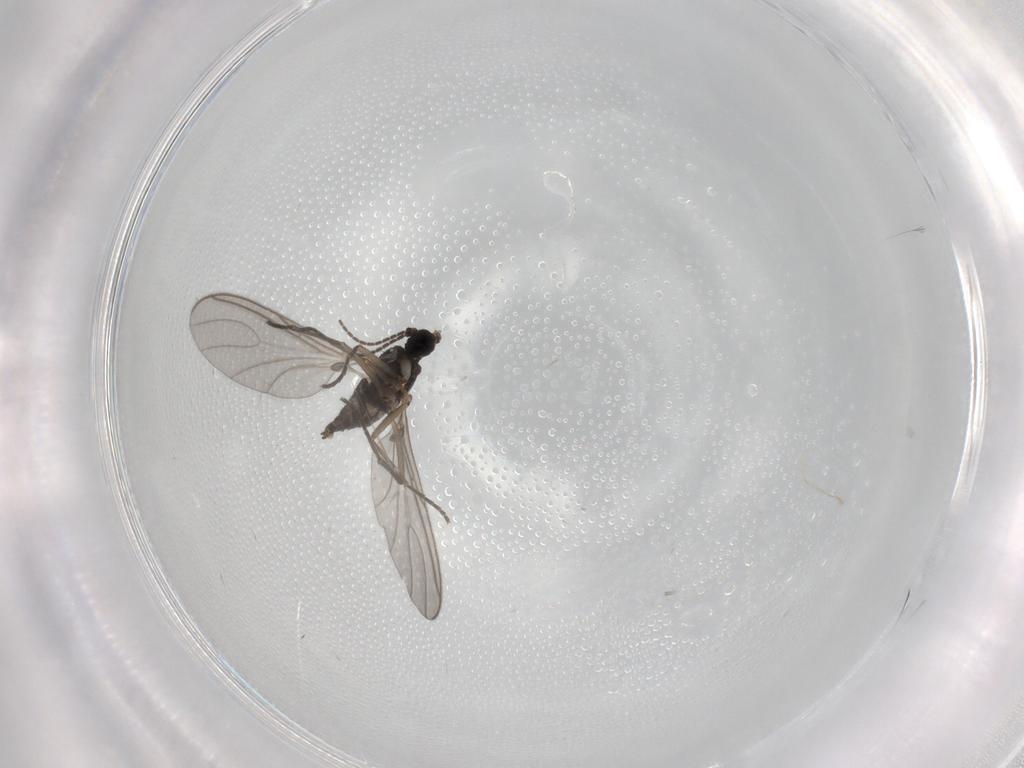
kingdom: Animalia
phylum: Arthropoda
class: Insecta
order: Diptera
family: Sciaridae
